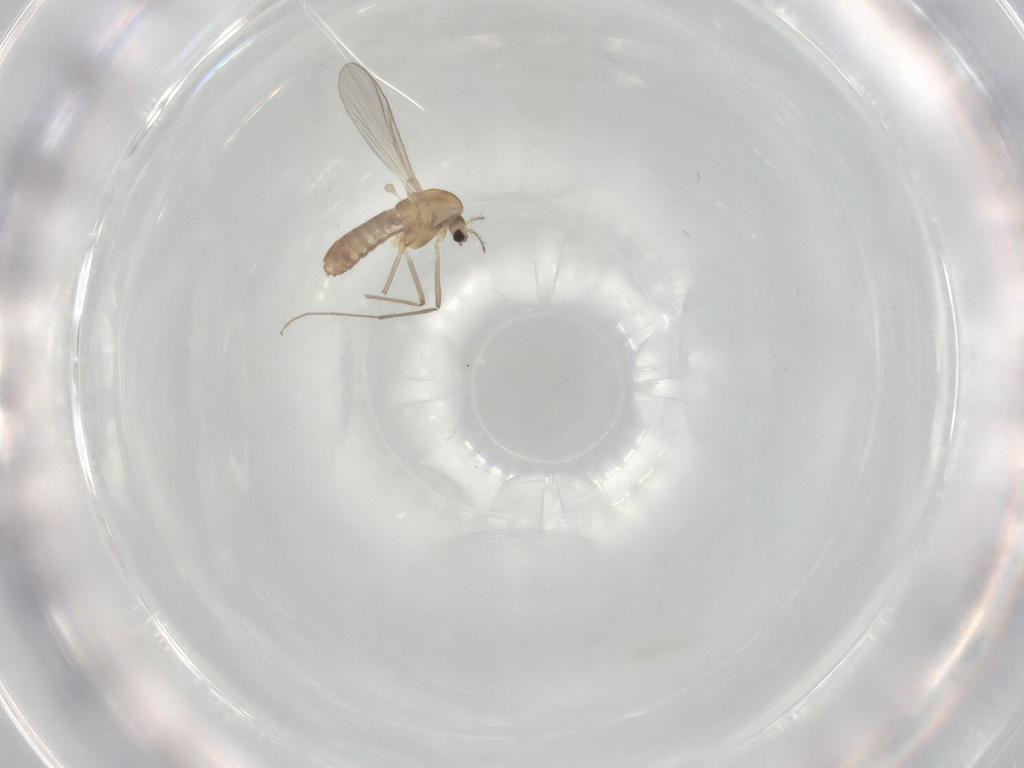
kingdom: Animalia
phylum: Arthropoda
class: Insecta
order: Diptera
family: Chironomidae
